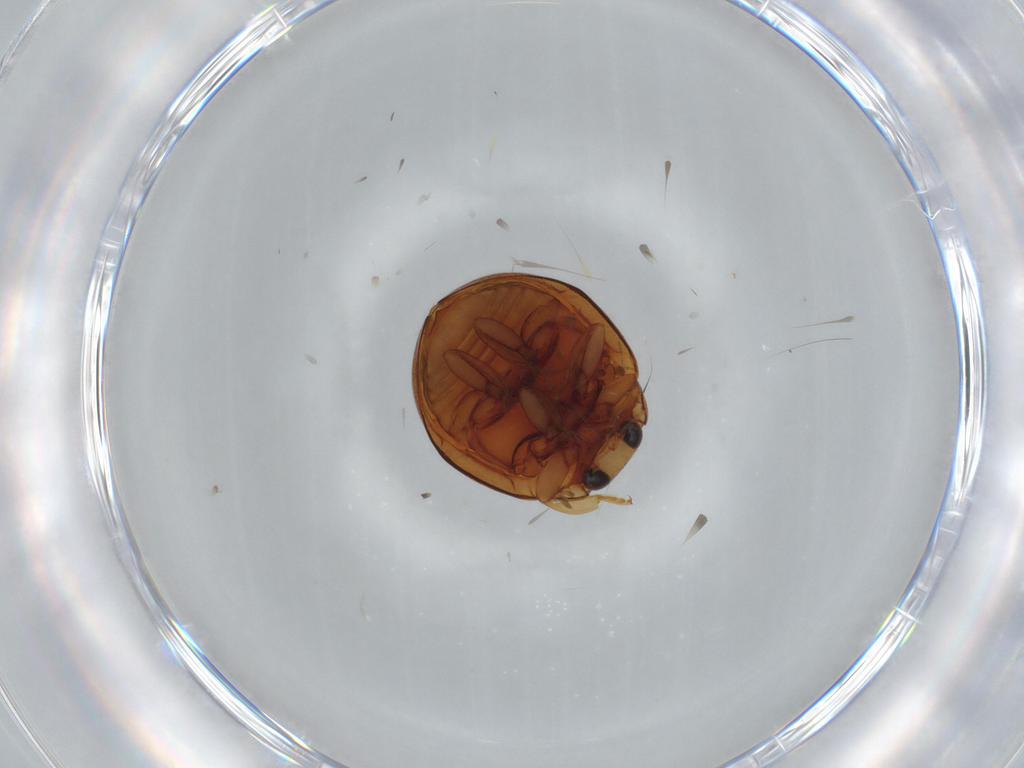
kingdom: Animalia
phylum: Arthropoda
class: Insecta
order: Coleoptera
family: Coccinellidae
